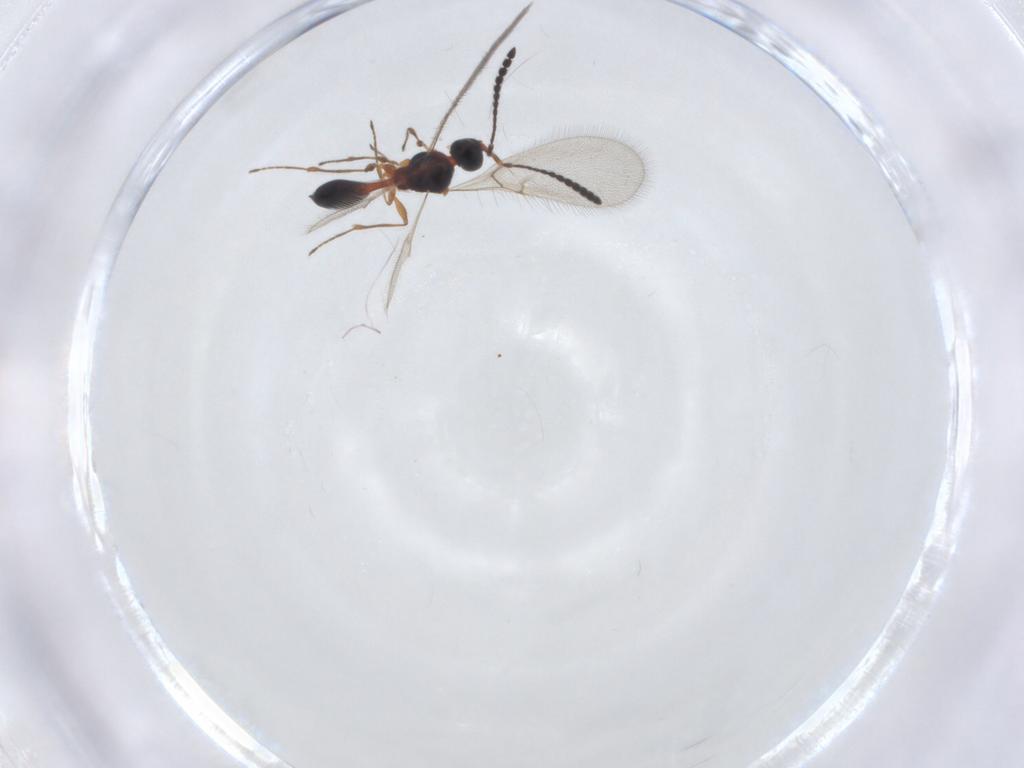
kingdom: Animalia
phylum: Arthropoda
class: Insecta
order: Hymenoptera
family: Diapriidae
